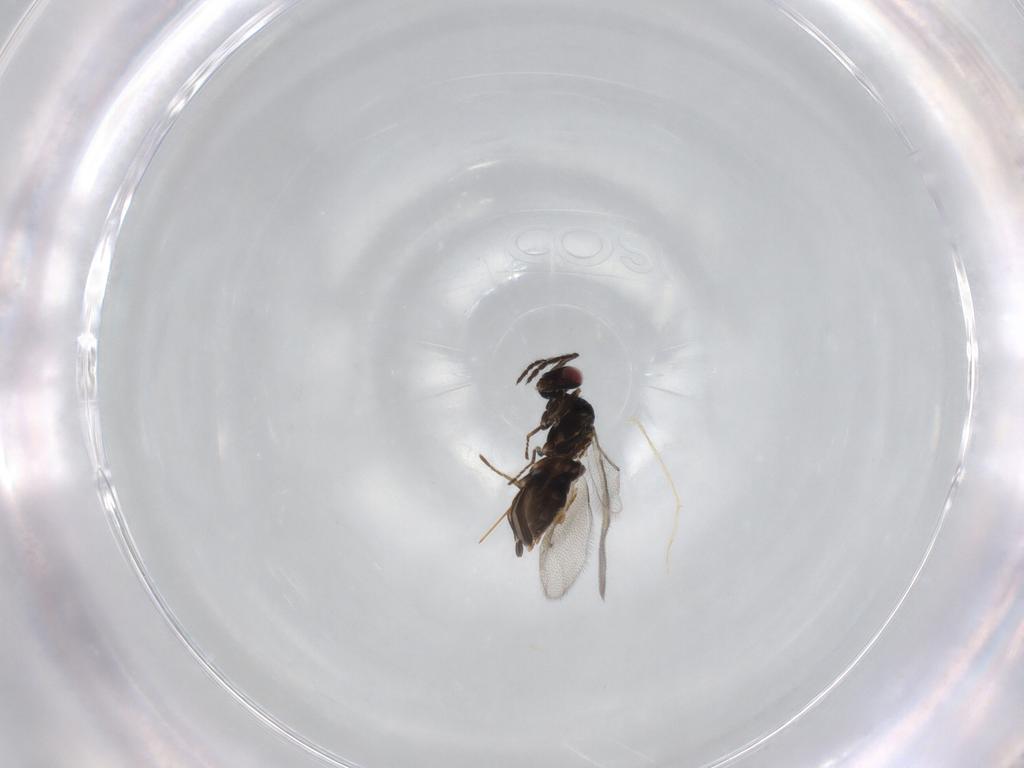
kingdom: Animalia
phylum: Arthropoda
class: Insecta
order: Hymenoptera
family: Eulophidae
